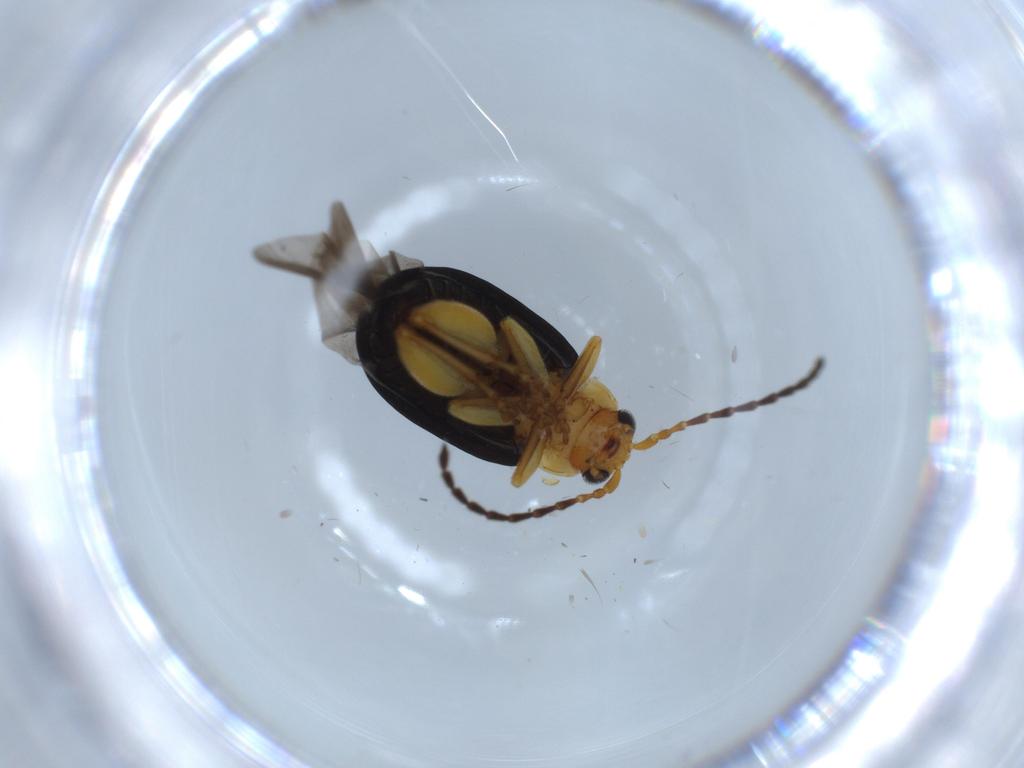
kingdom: Animalia
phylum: Arthropoda
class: Insecta
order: Coleoptera
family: Chrysomelidae
